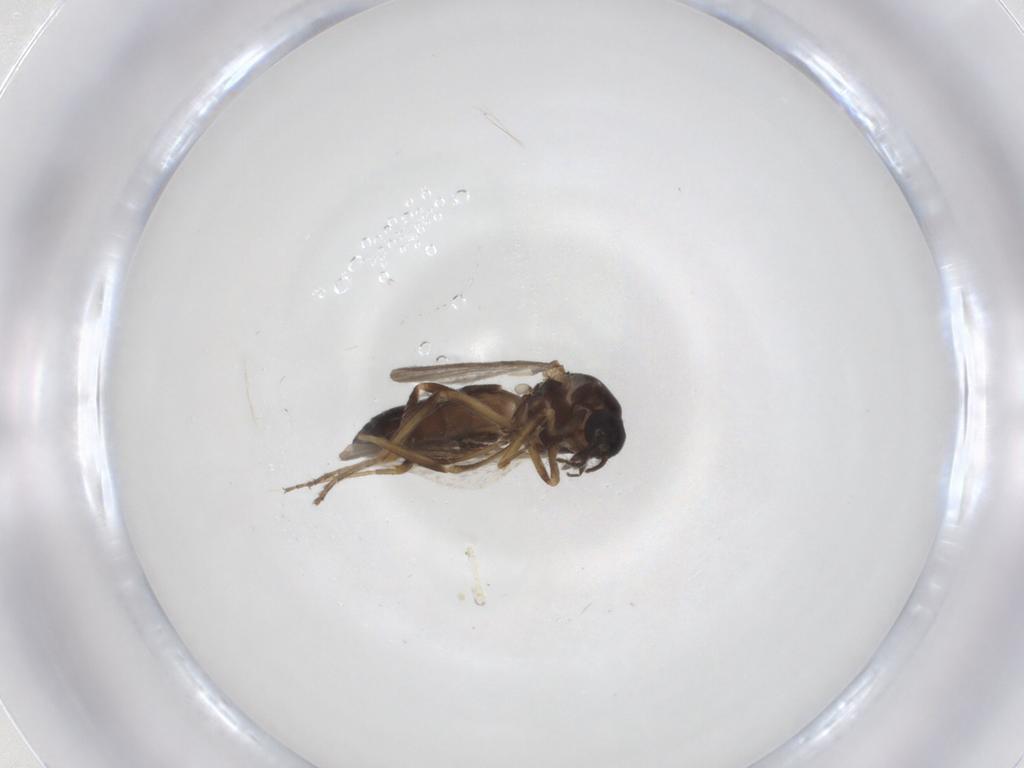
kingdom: Animalia
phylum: Arthropoda
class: Insecta
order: Diptera
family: Ceratopogonidae
